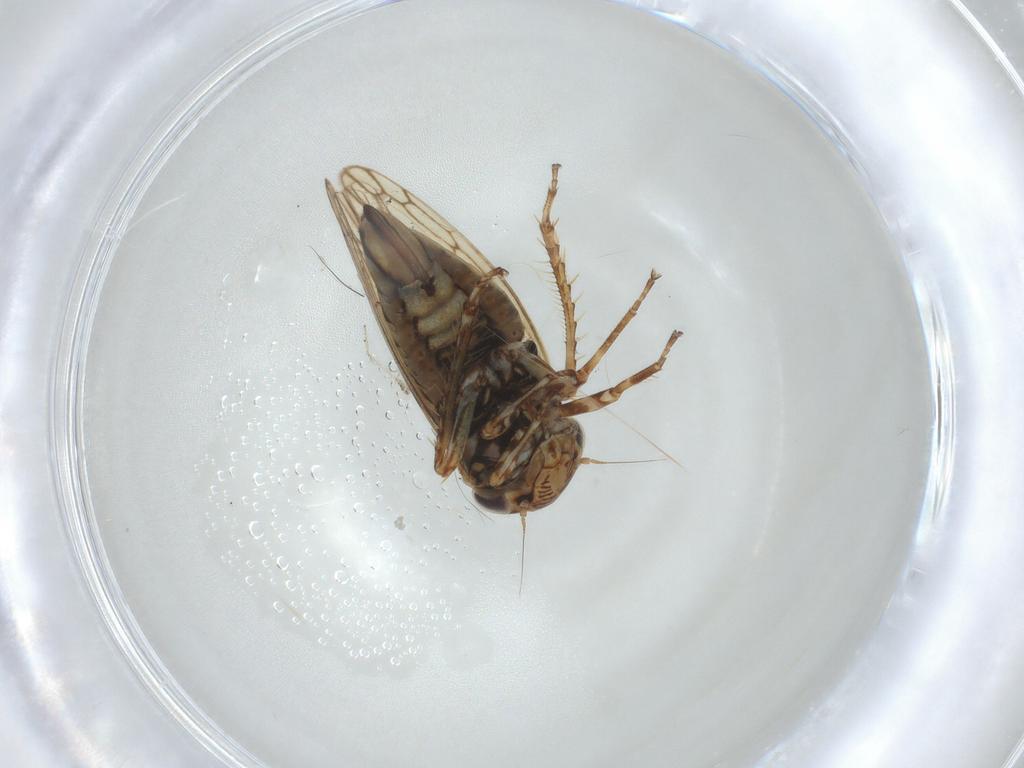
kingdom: Animalia
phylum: Arthropoda
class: Insecta
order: Hemiptera
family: Cicadellidae
